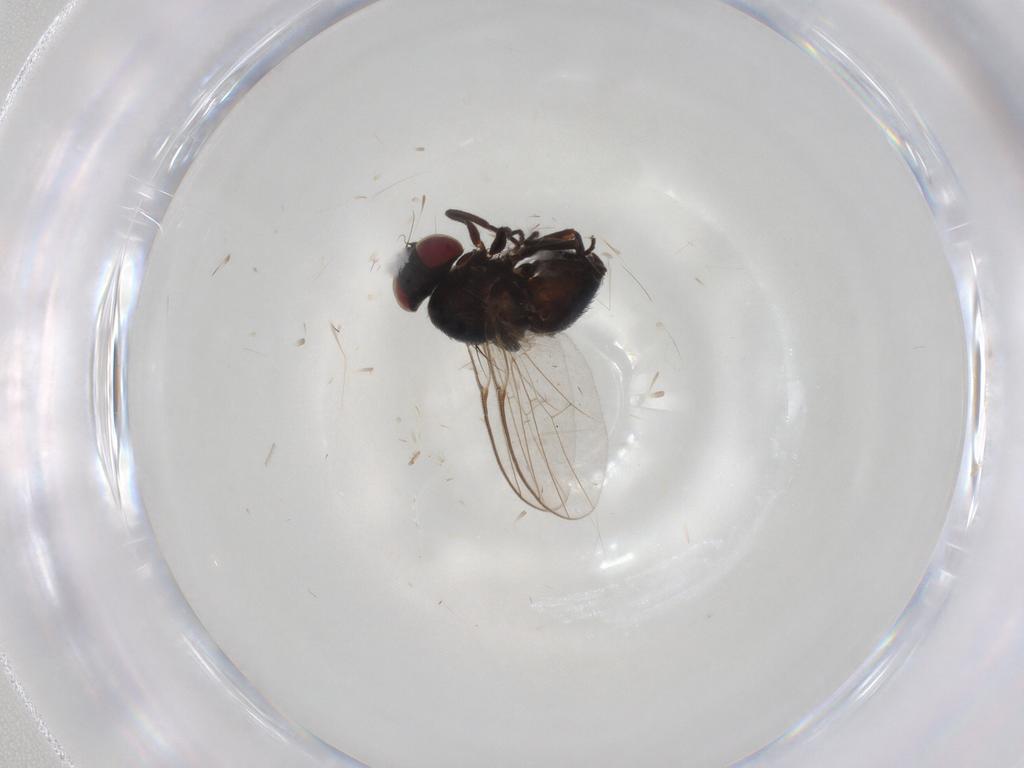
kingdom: Animalia
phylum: Arthropoda
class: Insecta
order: Diptera
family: Agromyzidae
